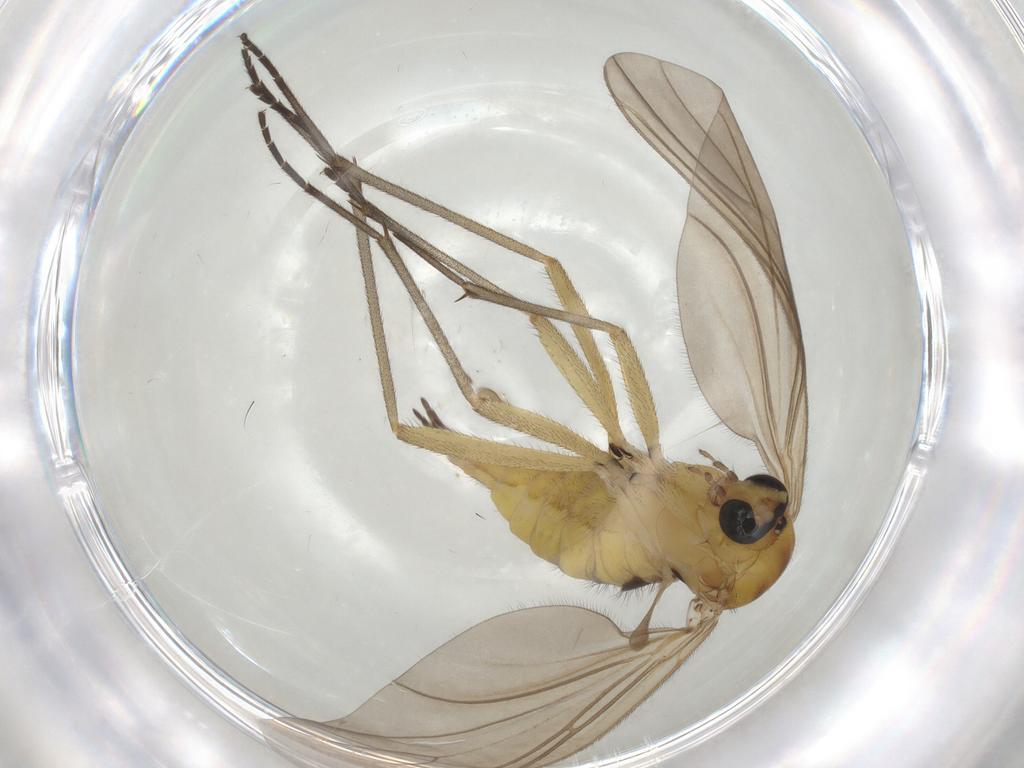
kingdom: Animalia
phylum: Arthropoda
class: Insecta
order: Diptera
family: Sciaridae
